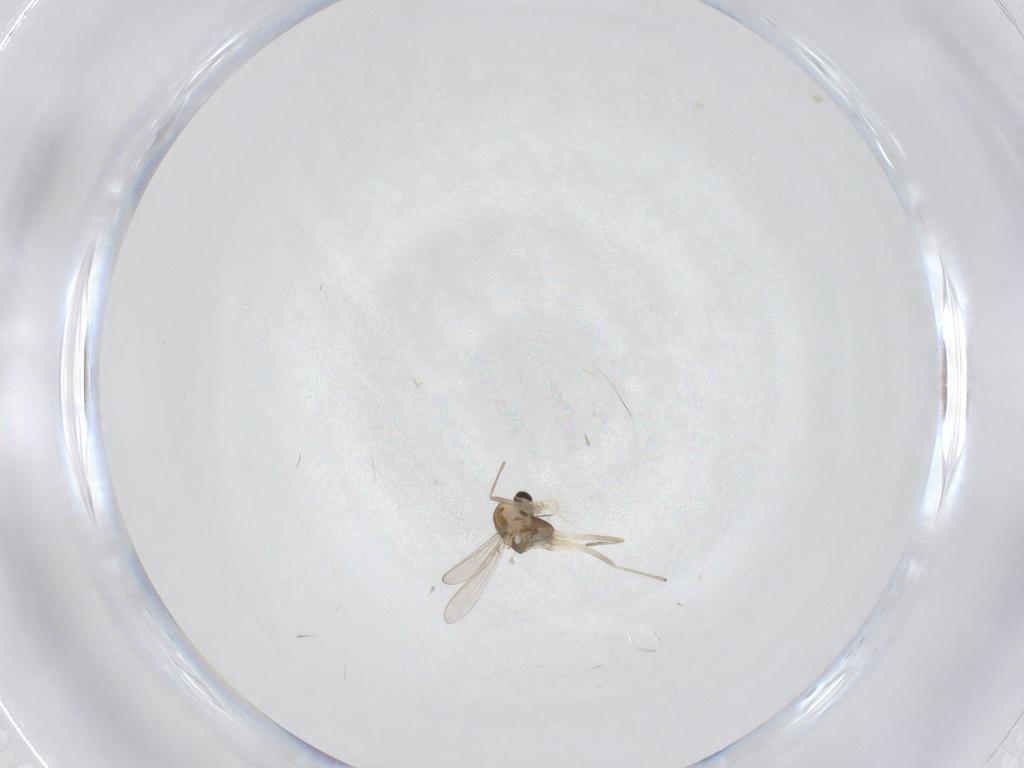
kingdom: Animalia
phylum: Arthropoda
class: Insecta
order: Diptera
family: Chironomidae
